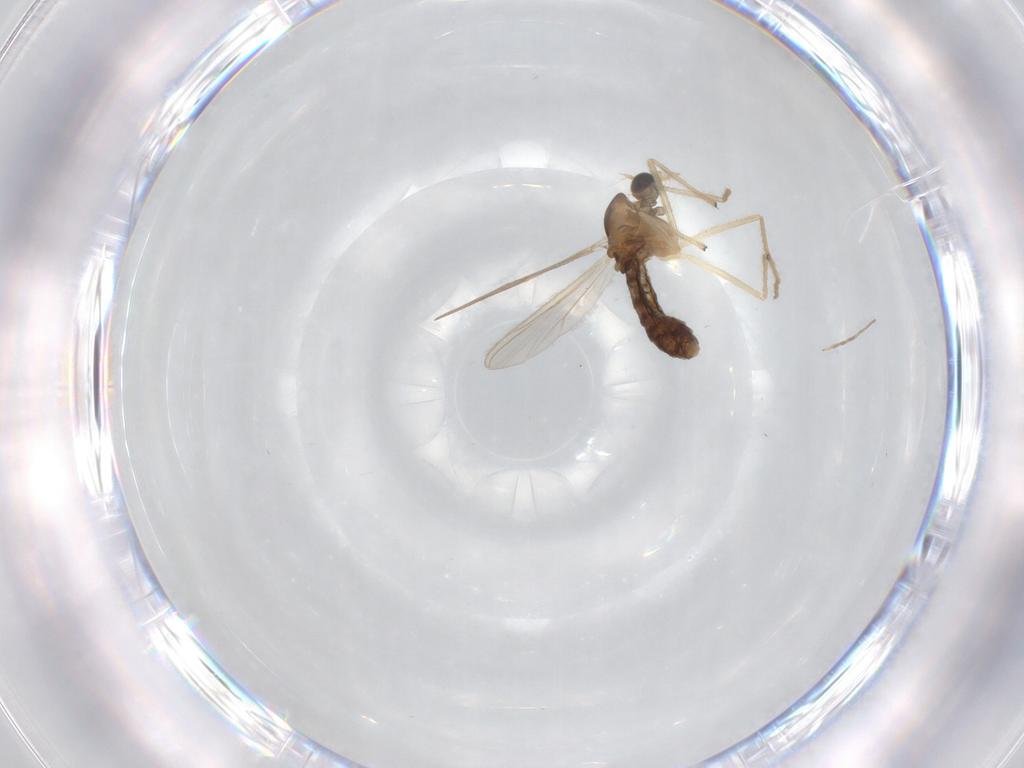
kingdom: Animalia
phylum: Arthropoda
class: Insecta
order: Diptera
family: Chironomidae
